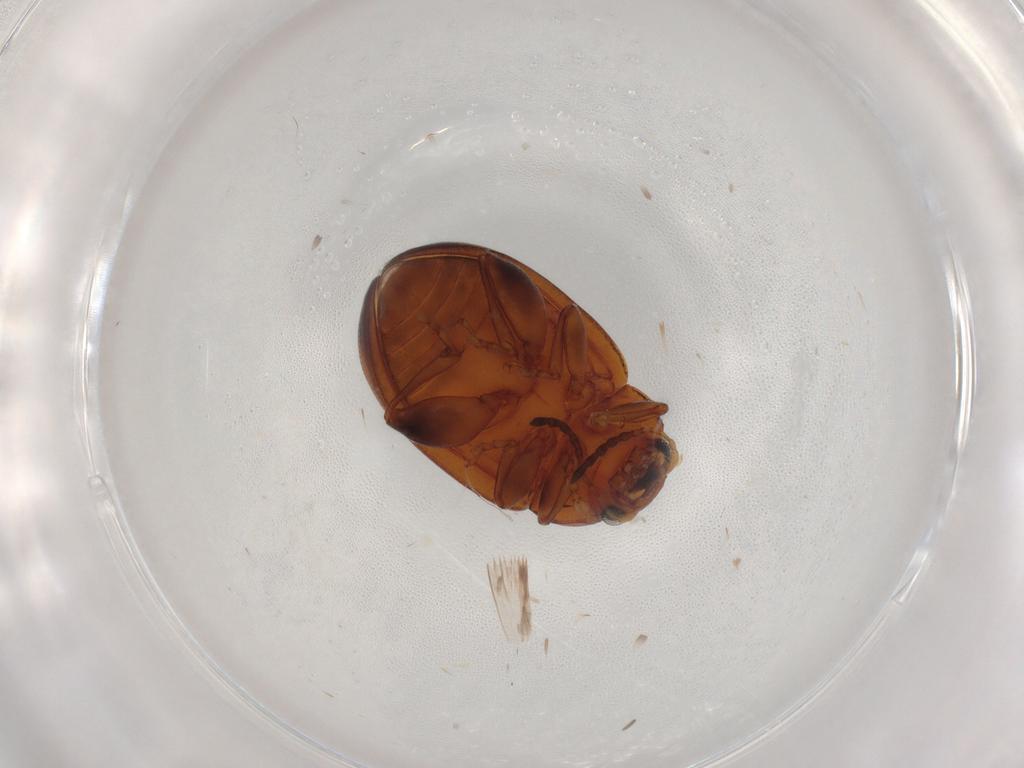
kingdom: Animalia
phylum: Arthropoda
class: Insecta
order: Coleoptera
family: Chrysomelidae
